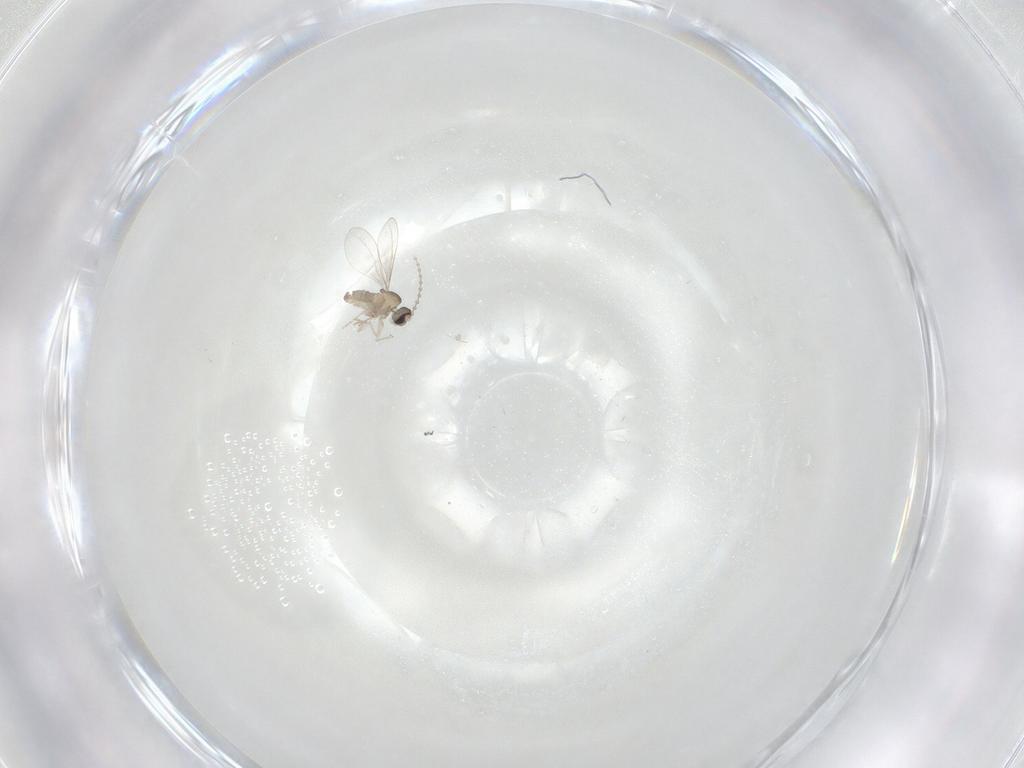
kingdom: Animalia
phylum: Arthropoda
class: Insecta
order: Diptera
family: Cecidomyiidae
